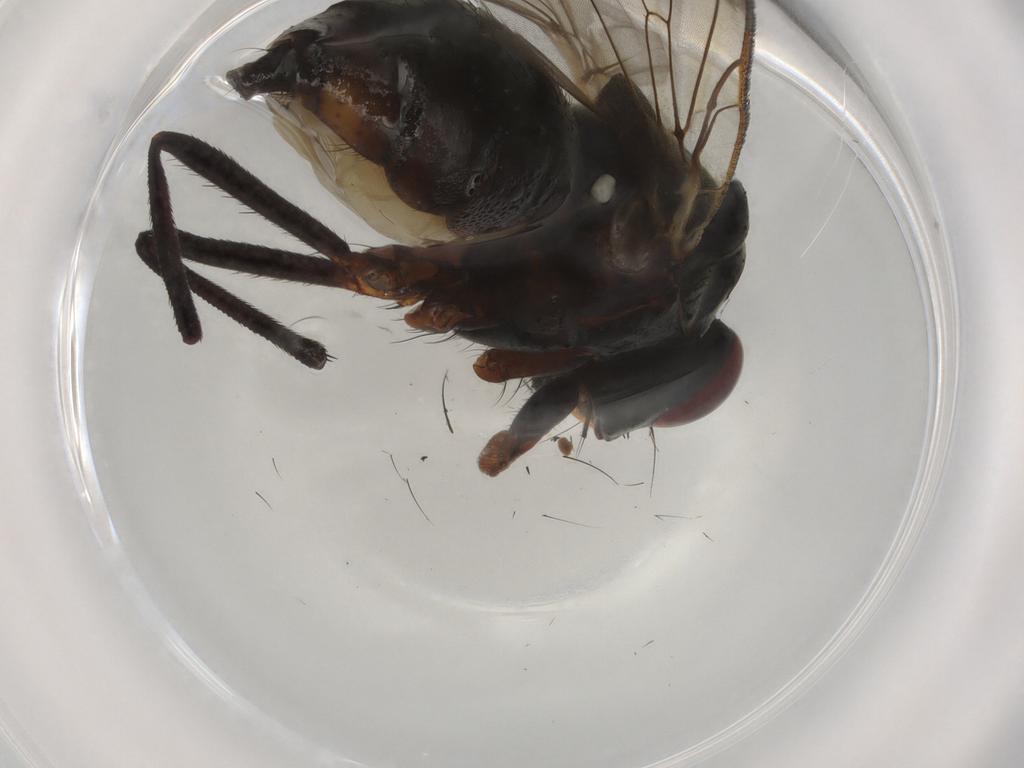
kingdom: Animalia
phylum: Arthropoda
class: Insecta
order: Diptera
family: Anthomyiidae
